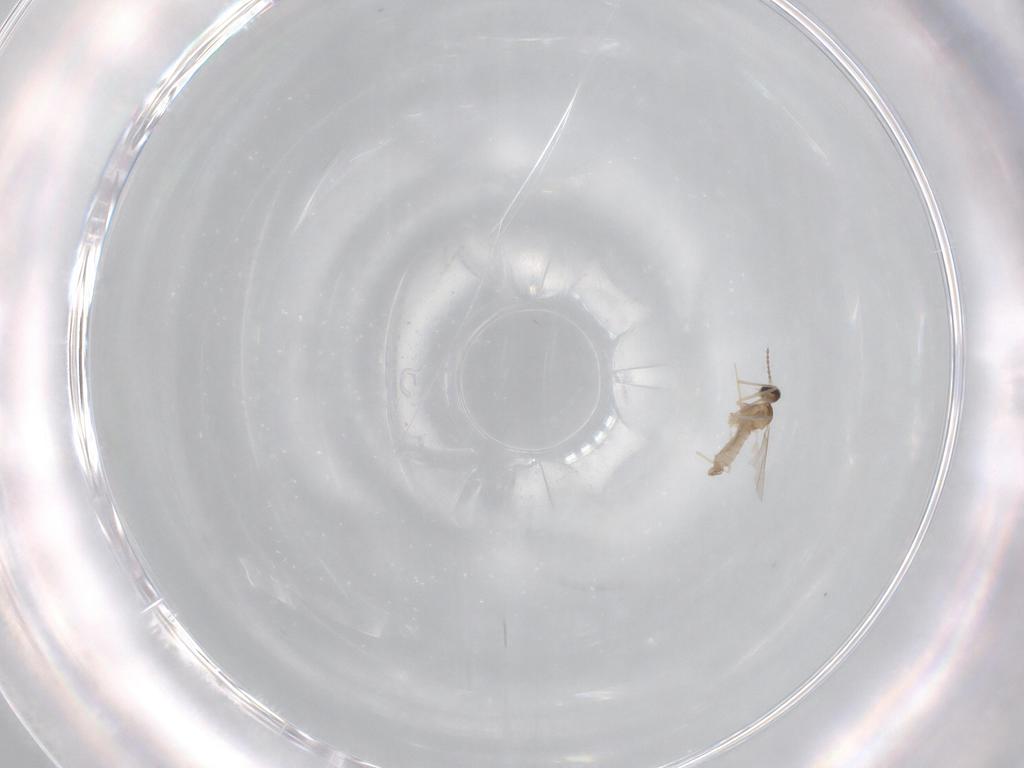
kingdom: Animalia
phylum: Arthropoda
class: Insecta
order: Diptera
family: Cecidomyiidae
